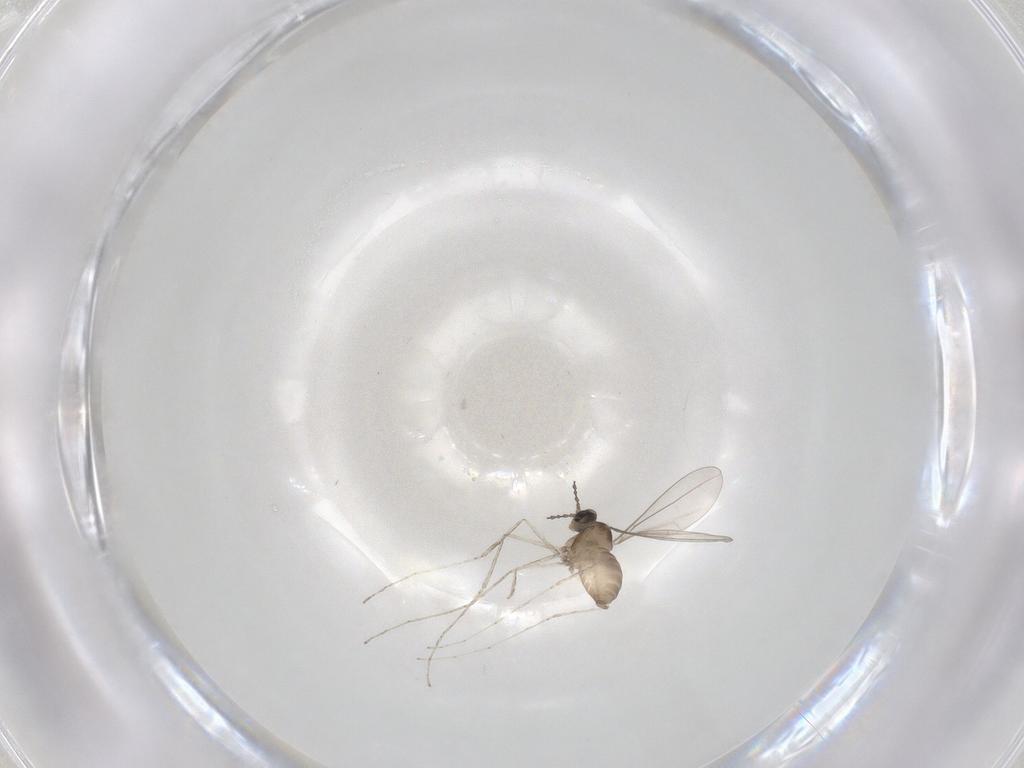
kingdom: Animalia
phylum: Arthropoda
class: Insecta
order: Diptera
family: Cecidomyiidae
